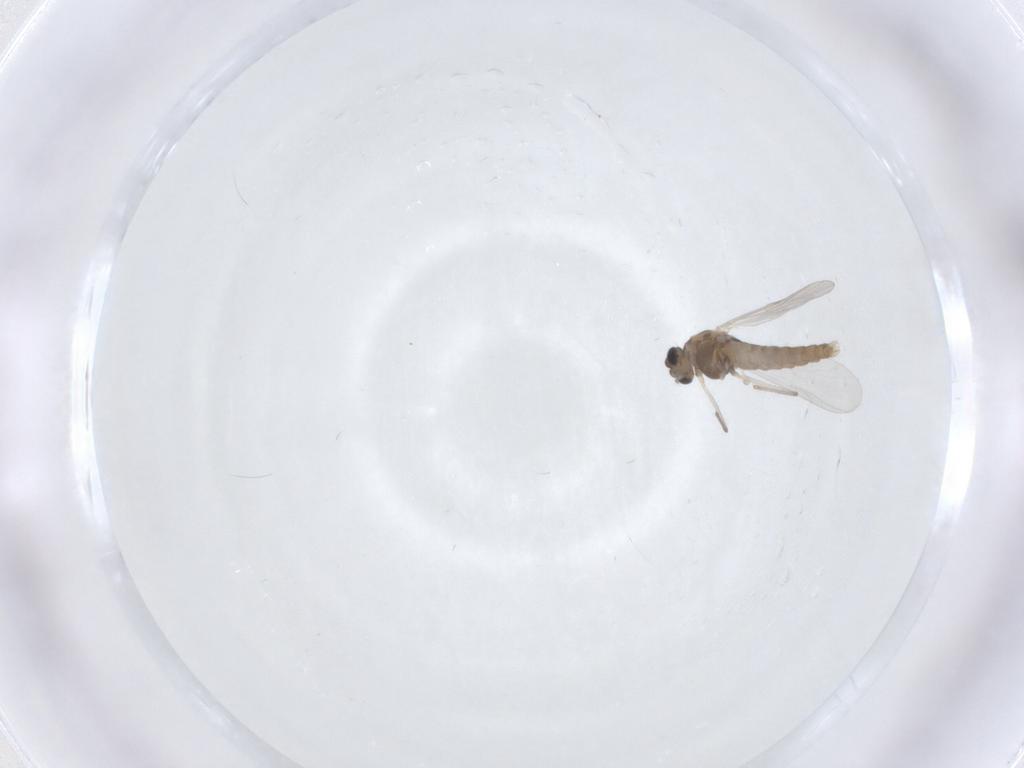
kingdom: Animalia
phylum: Arthropoda
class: Insecta
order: Diptera
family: Chironomidae
